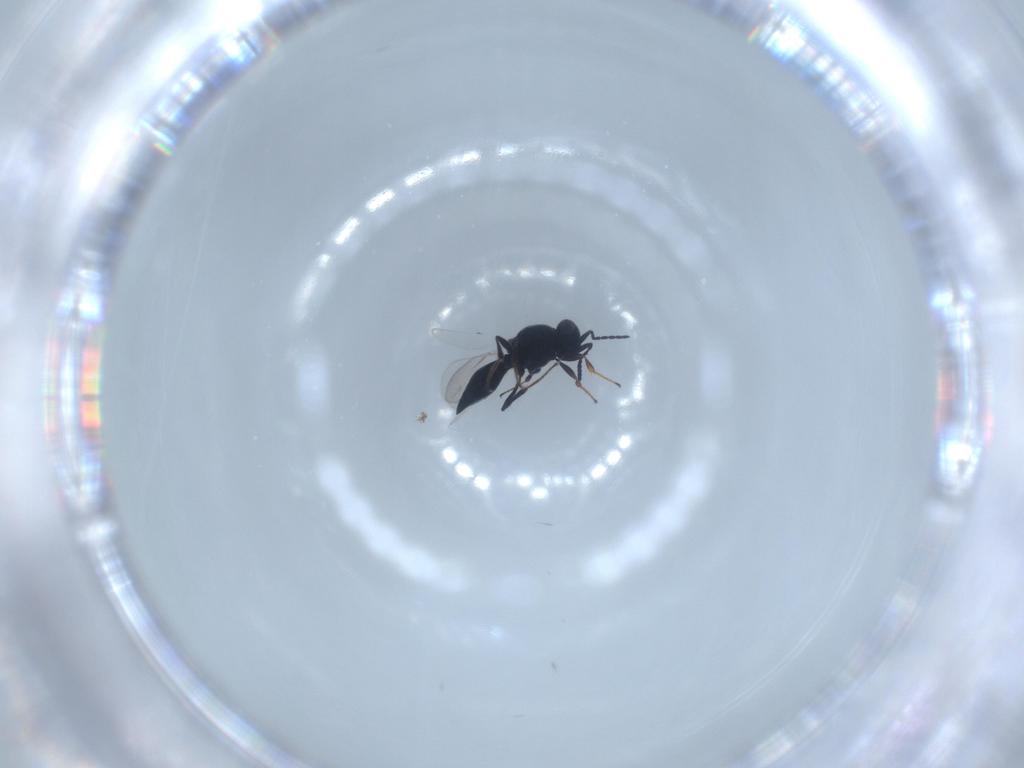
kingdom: Animalia
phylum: Arthropoda
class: Insecta
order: Diptera
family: Mythicomyiidae
